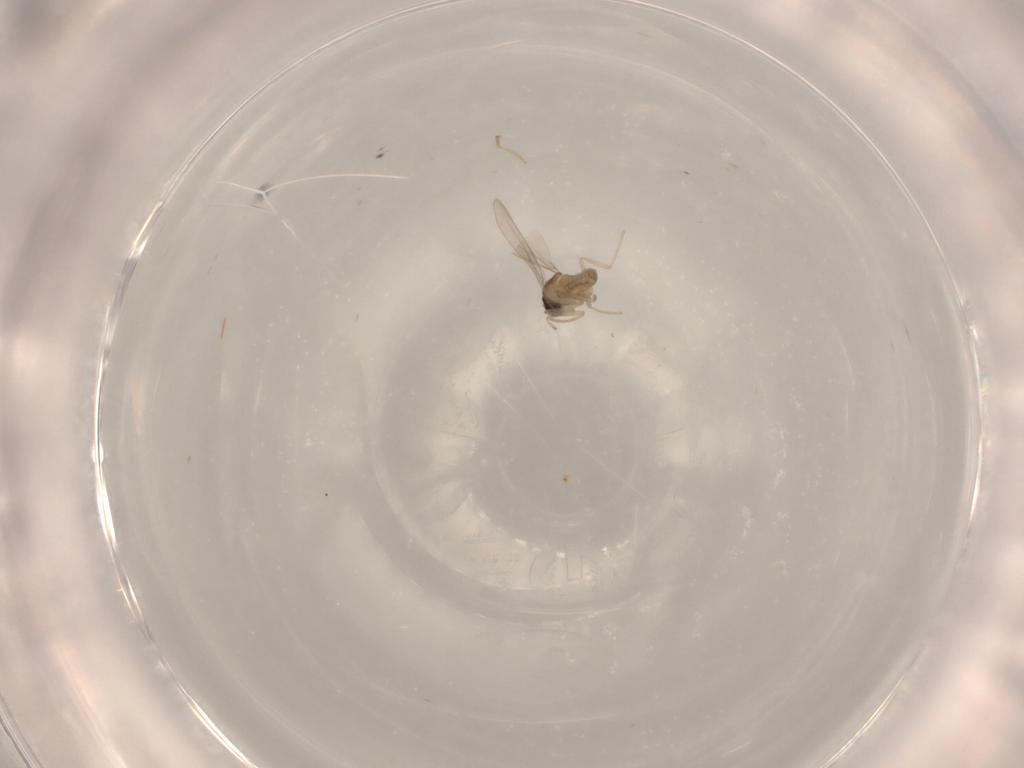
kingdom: Animalia
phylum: Arthropoda
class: Insecta
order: Diptera
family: Cecidomyiidae
